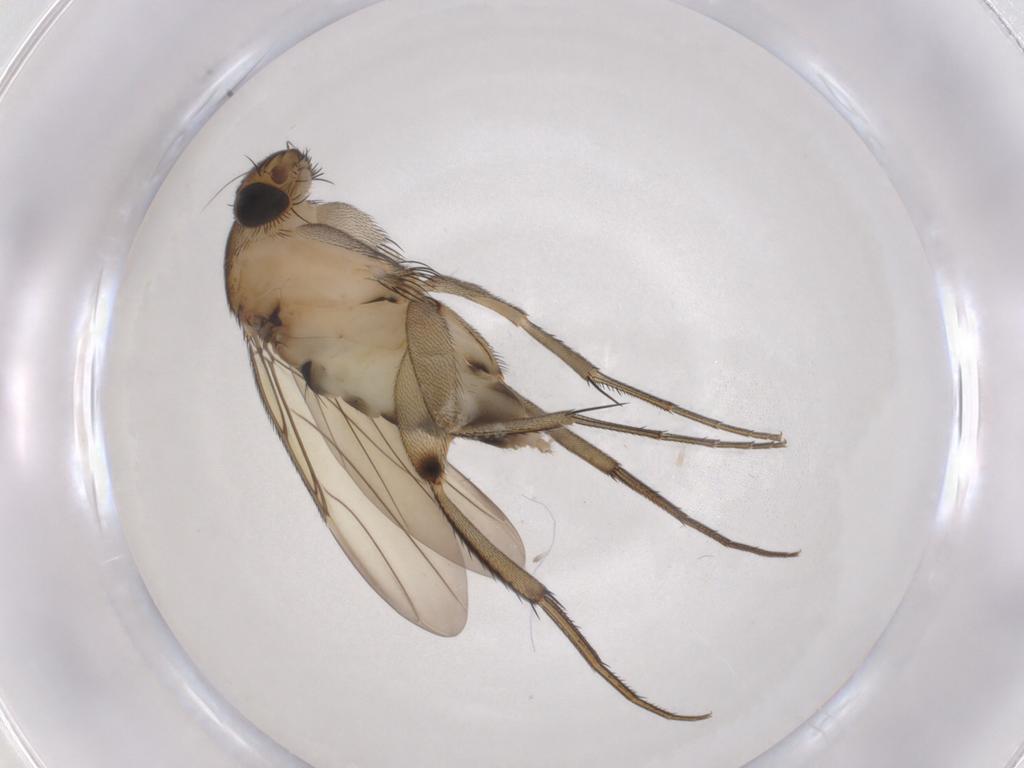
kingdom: Animalia
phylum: Arthropoda
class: Insecta
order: Diptera
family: Phoridae
